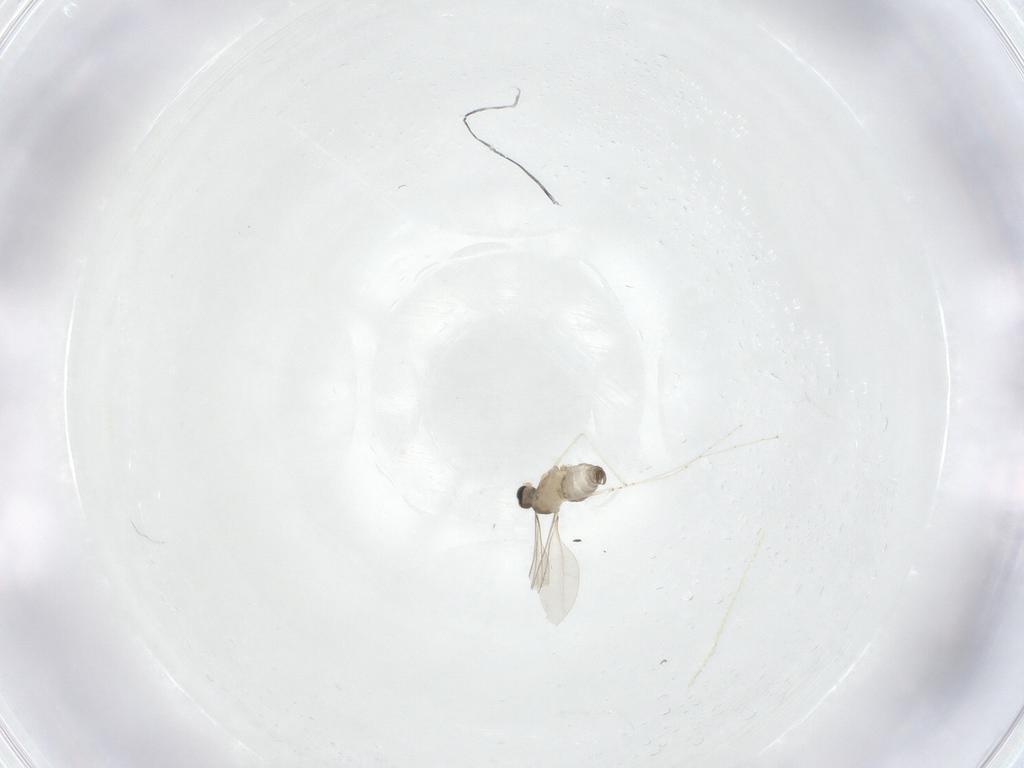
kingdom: Animalia
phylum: Arthropoda
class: Insecta
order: Diptera
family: Cecidomyiidae
